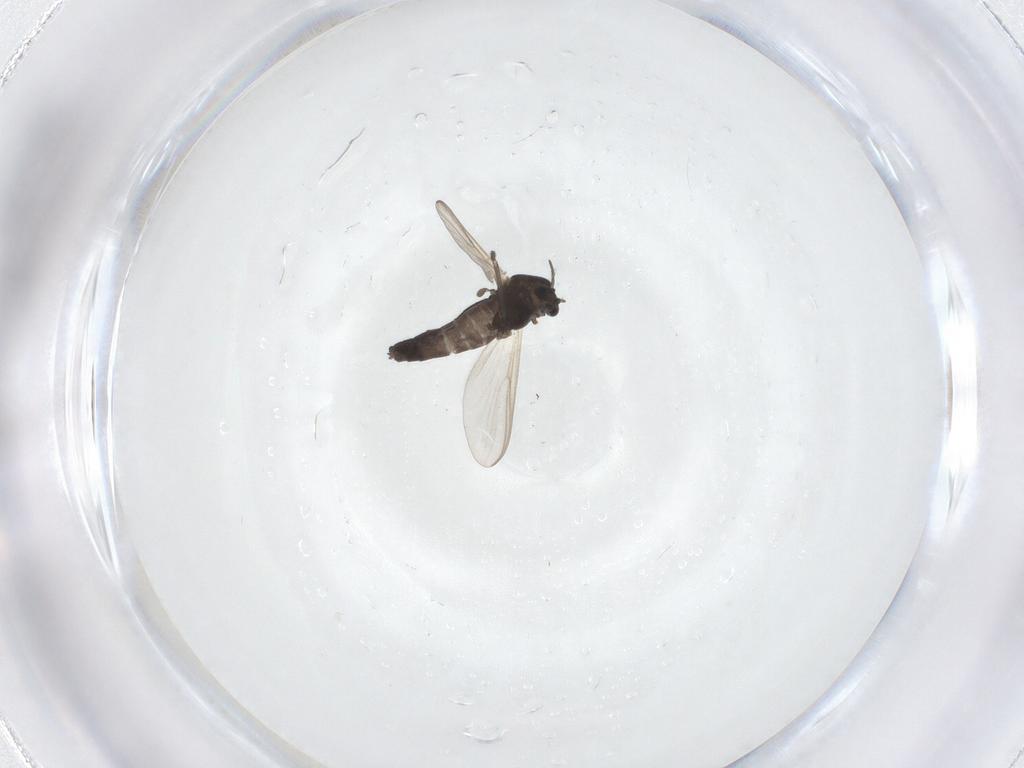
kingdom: Animalia
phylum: Arthropoda
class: Insecta
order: Diptera
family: Chironomidae
